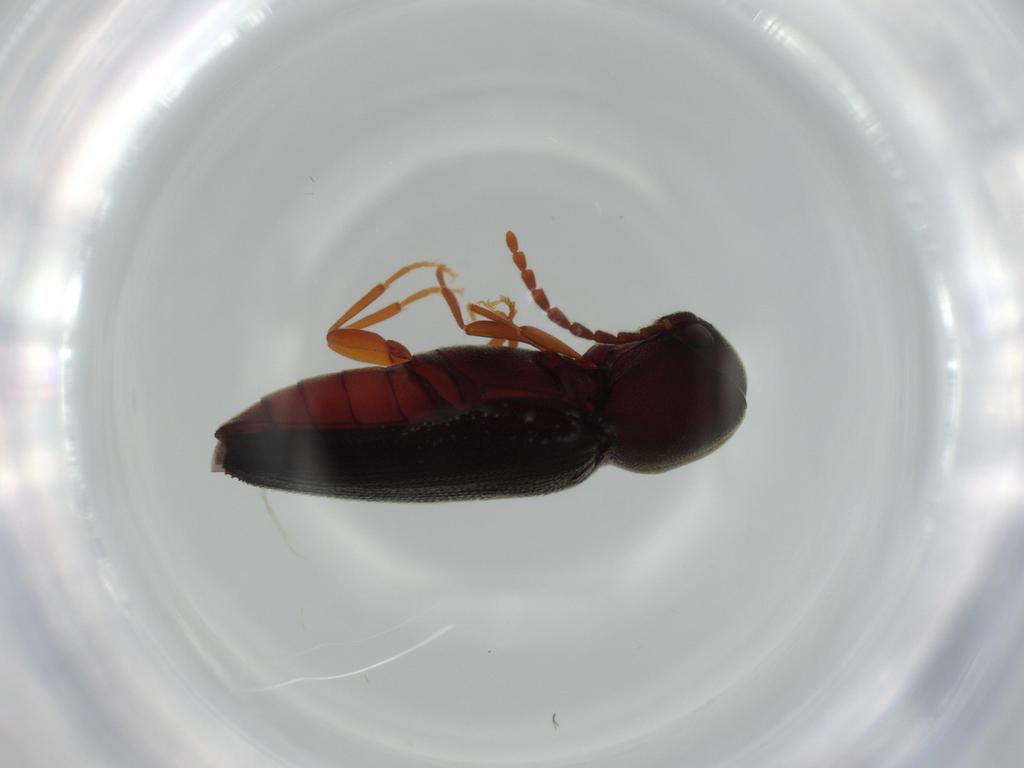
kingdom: Animalia
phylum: Arthropoda
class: Insecta
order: Coleoptera
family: Eucnemidae
